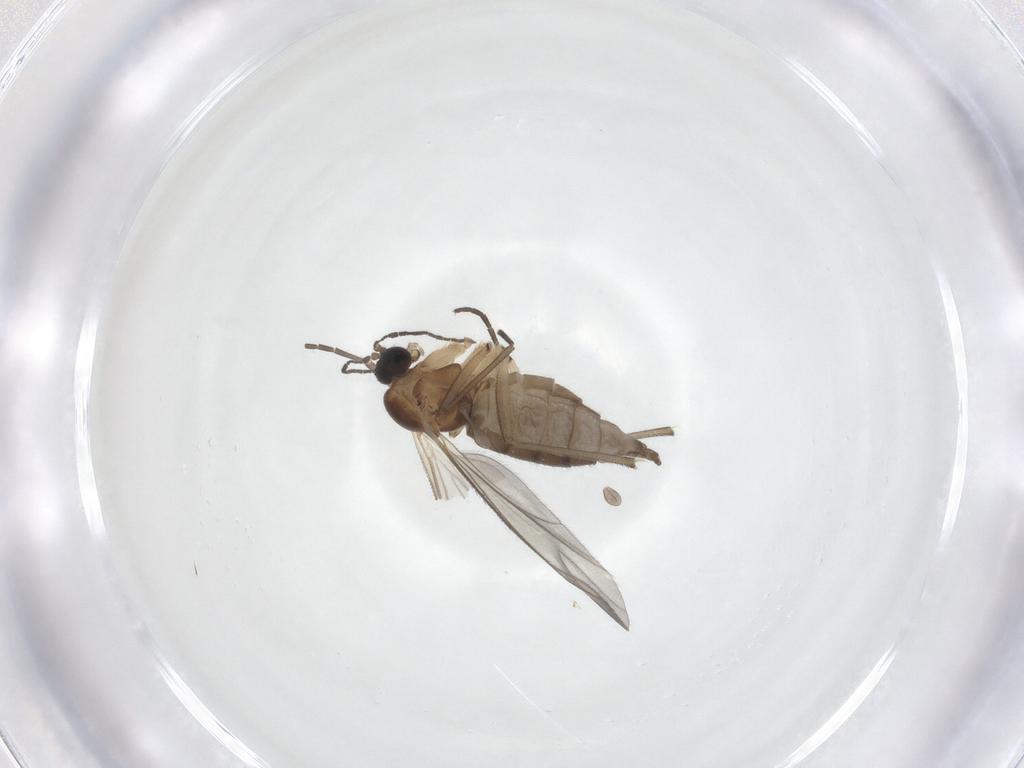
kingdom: Animalia
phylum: Arthropoda
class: Insecta
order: Diptera
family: Sciaridae
